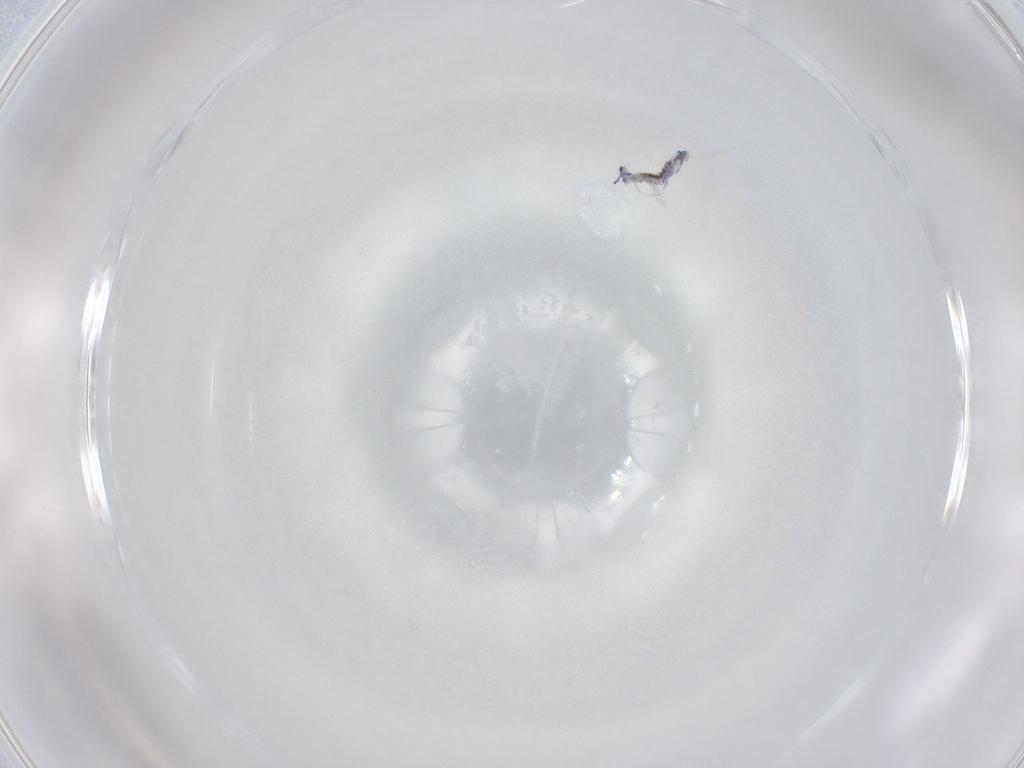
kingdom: Animalia
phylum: Arthropoda
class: Collembola
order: Entomobryomorpha
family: Entomobryidae
